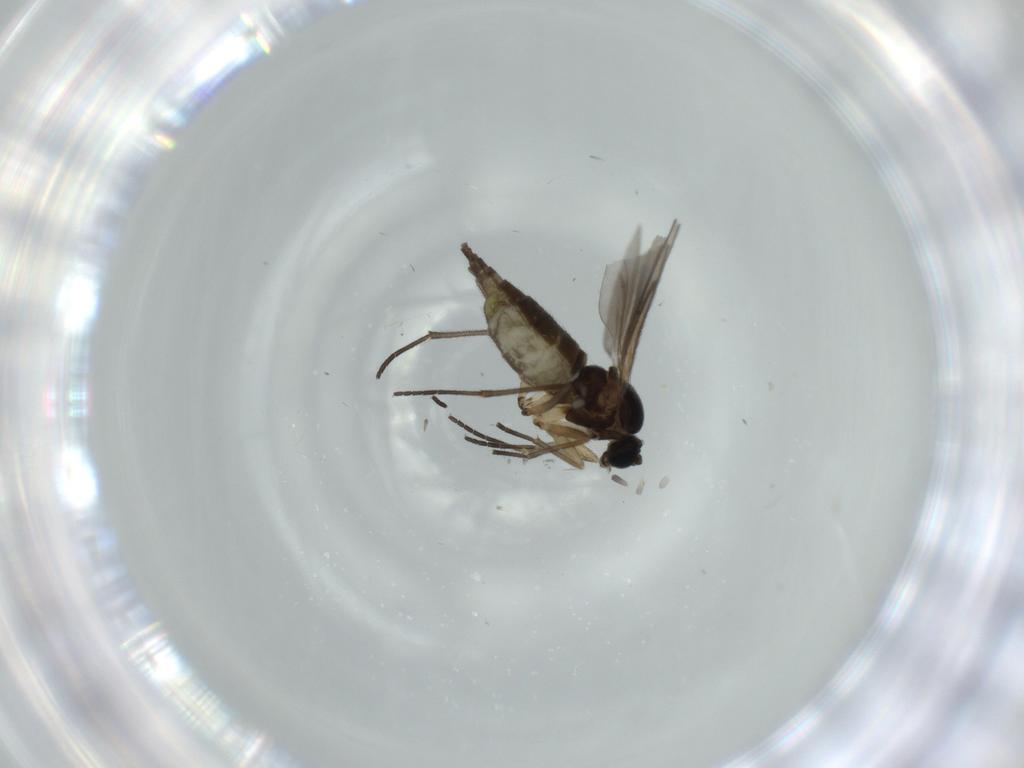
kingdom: Animalia
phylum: Arthropoda
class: Insecta
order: Diptera
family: Sciaridae
